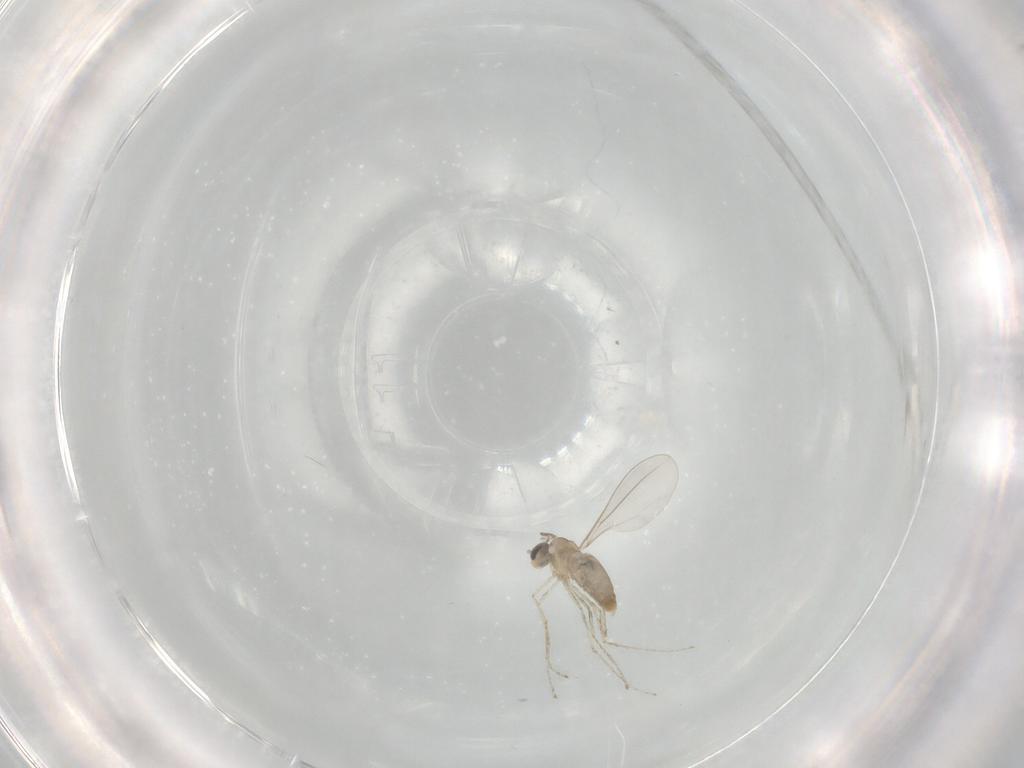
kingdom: Animalia
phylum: Arthropoda
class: Insecta
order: Diptera
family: Cecidomyiidae
